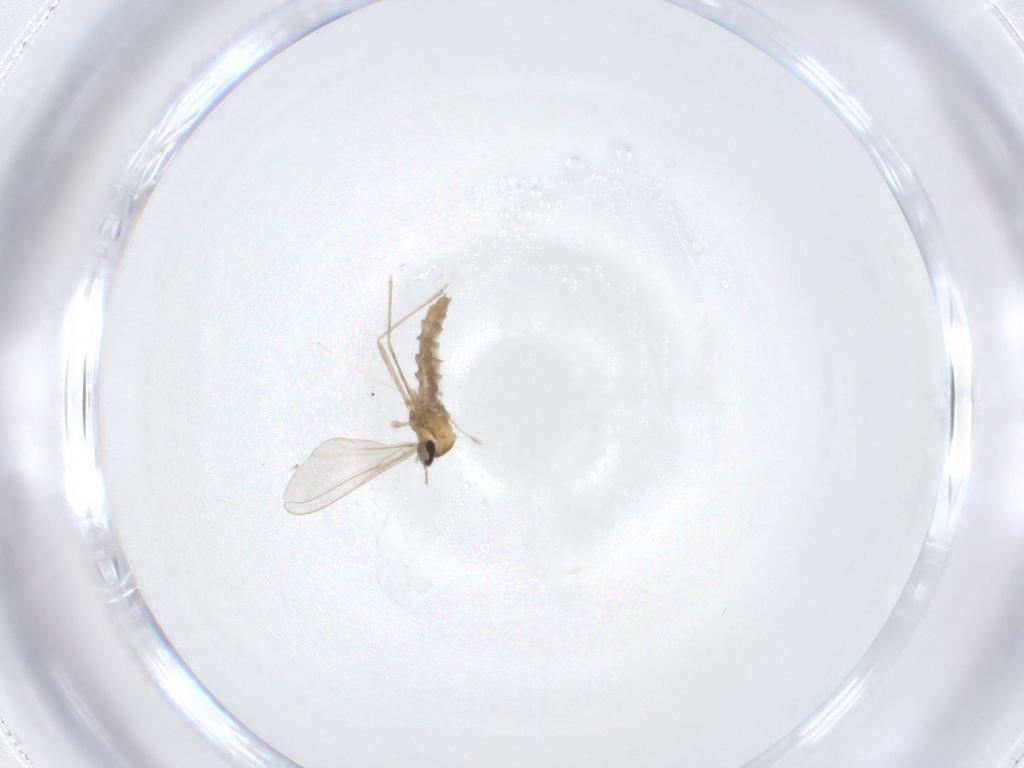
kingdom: Animalia
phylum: Arthropoda
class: Insecta
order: Diptera
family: Cecidomyiidae
